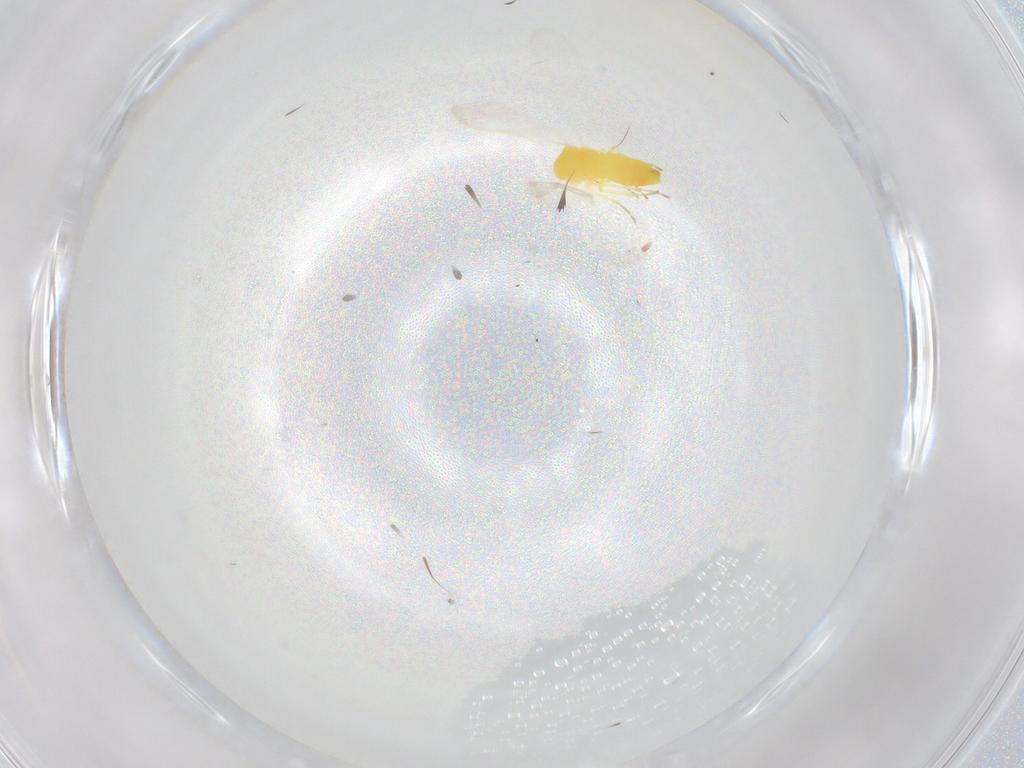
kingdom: Animalia
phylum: Arthropoda
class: Insecta
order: Hemiptera
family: Aleyrodidae
